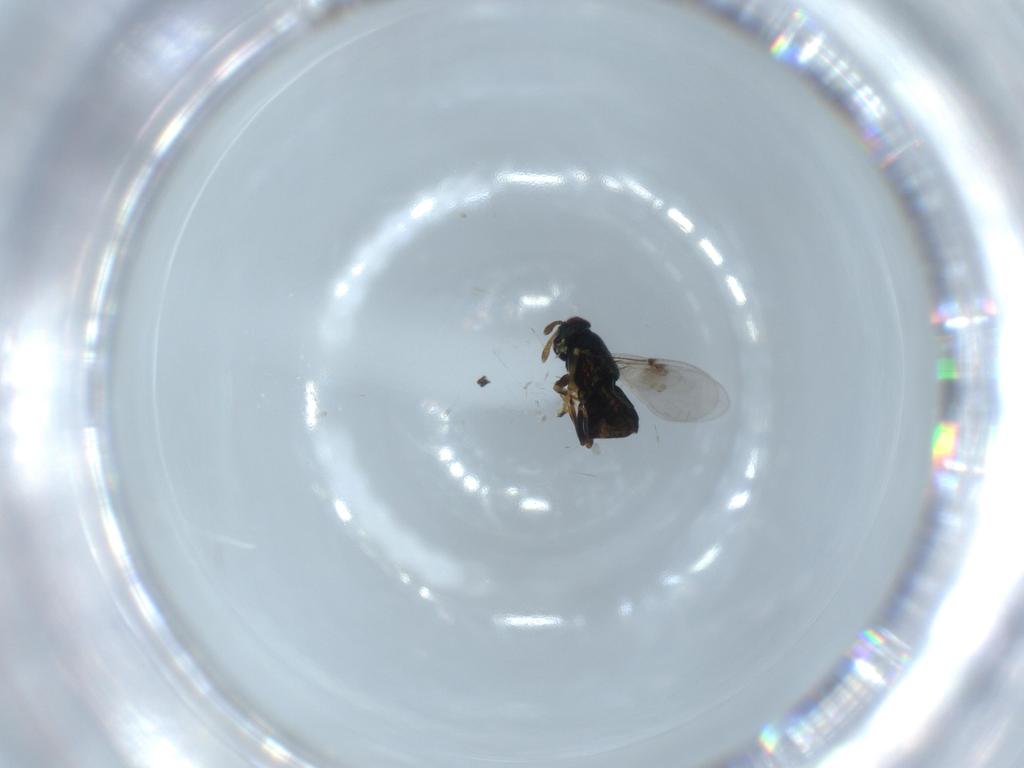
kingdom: Animalia
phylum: Arthropoda
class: Insecta
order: Hymenoptera
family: Encyrtidae
